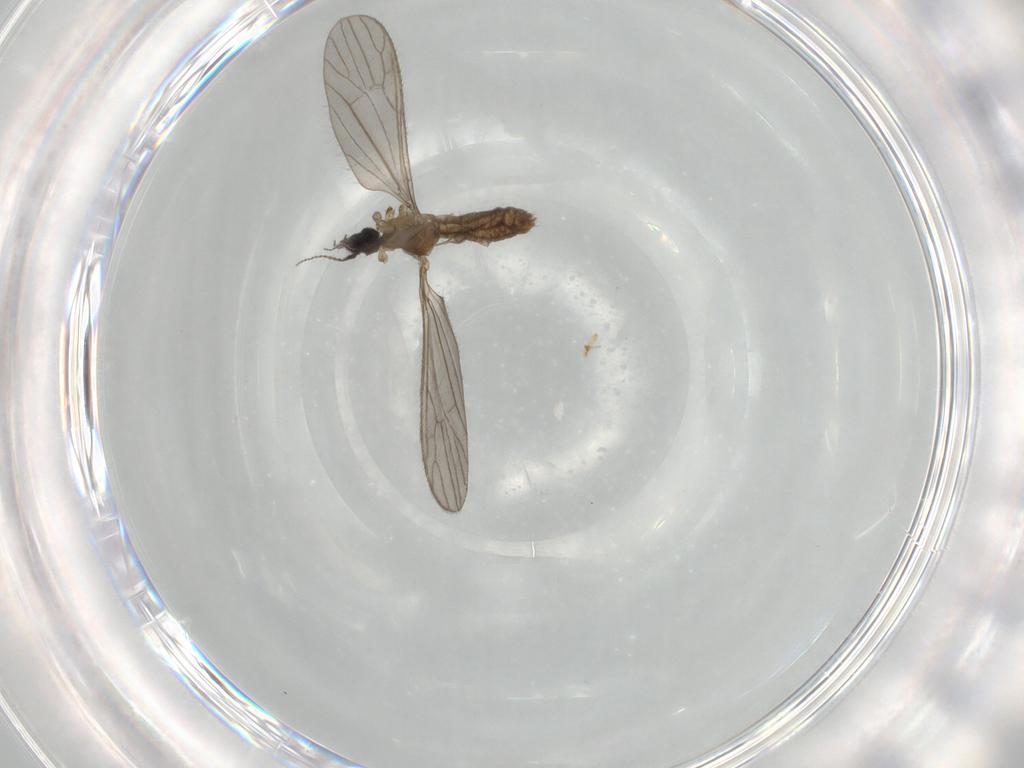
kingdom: Animalia
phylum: Arthropoda
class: Insecta
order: Diptera
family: Limoniidae
